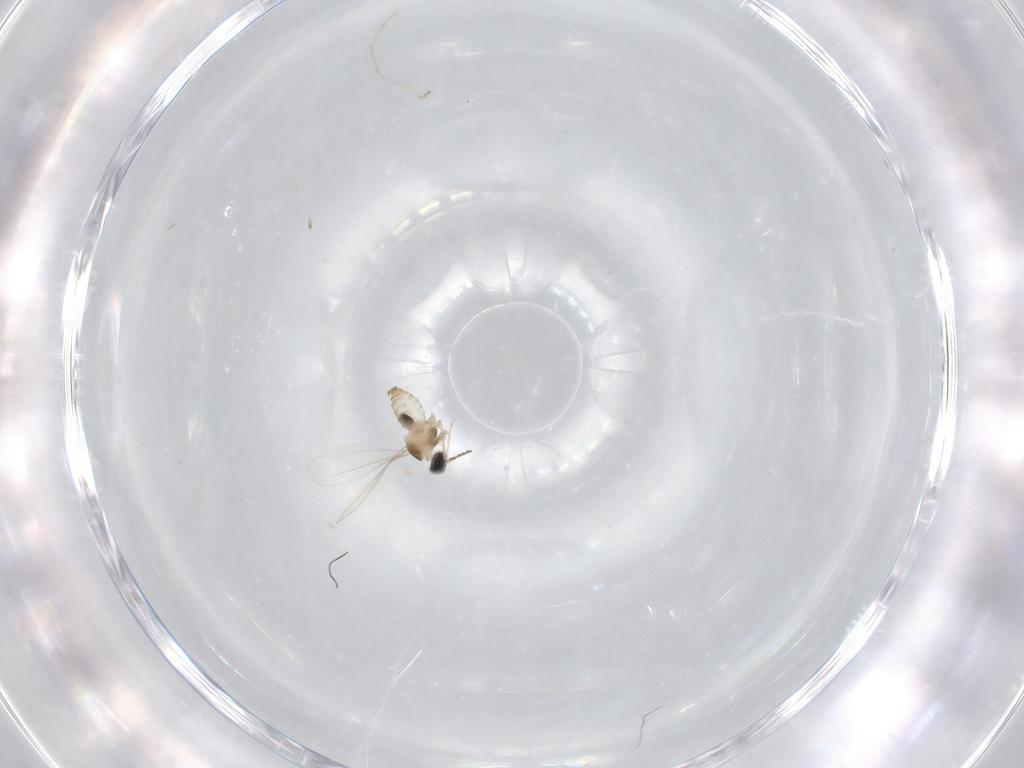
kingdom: Animalia
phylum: Arthropoda
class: Insecta
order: Diptera
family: Cecidomyiidae
